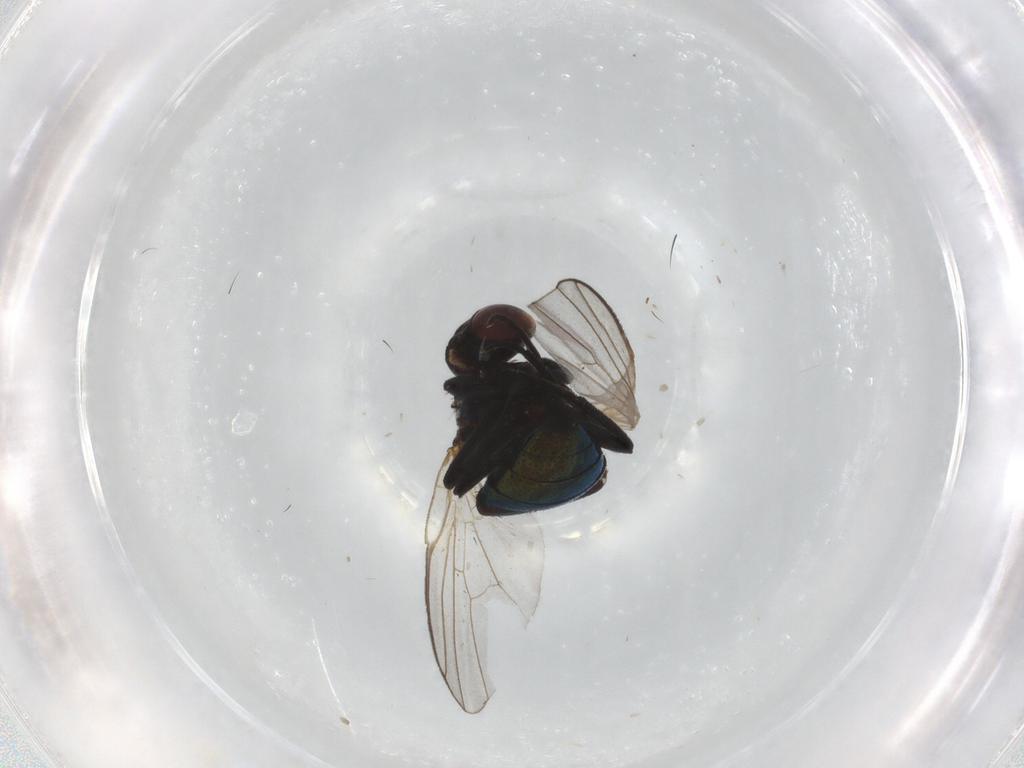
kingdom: Animalia
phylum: Arthropoda
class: Insecta
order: Diptera
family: Agromyzidae
